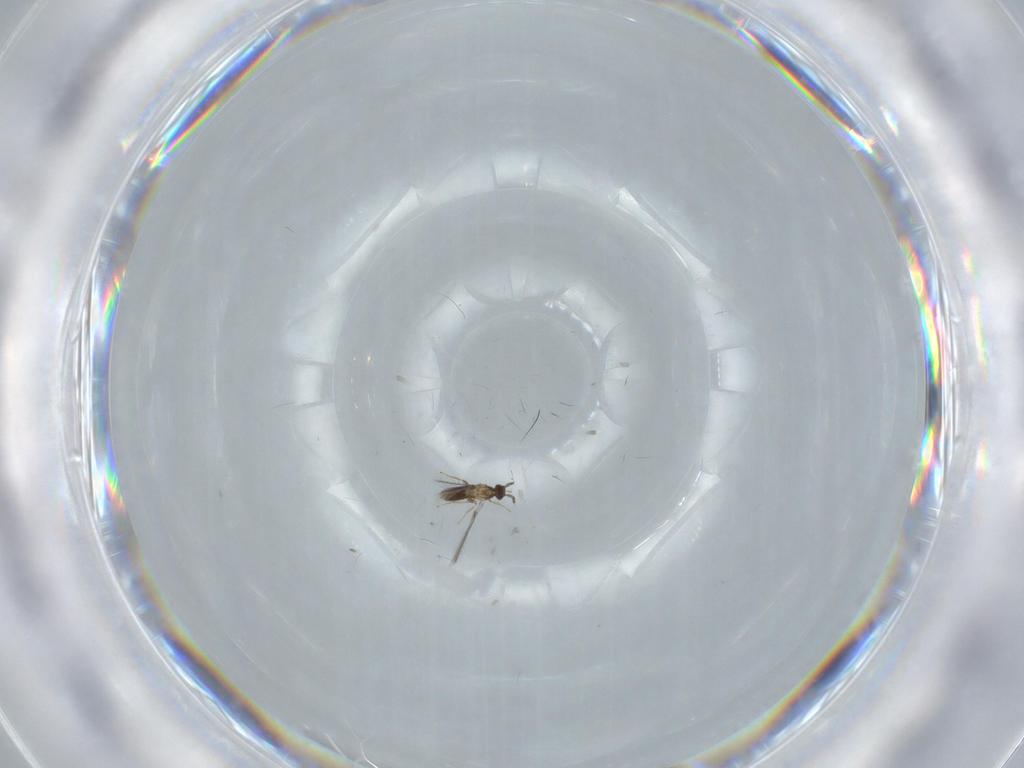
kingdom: Animalia
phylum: Arthropoda
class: Insecta
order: Hymenoptera
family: Mymaridae
